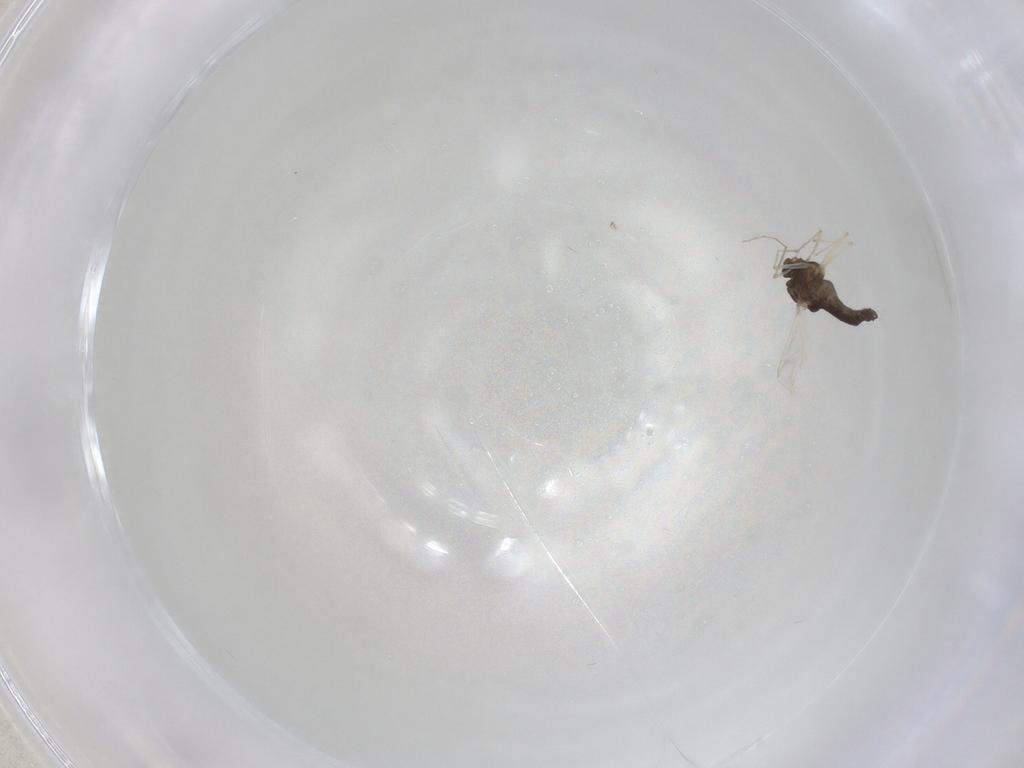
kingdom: Animalia
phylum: Arthropoda
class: Insecta
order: Diptera
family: Chironomidae
